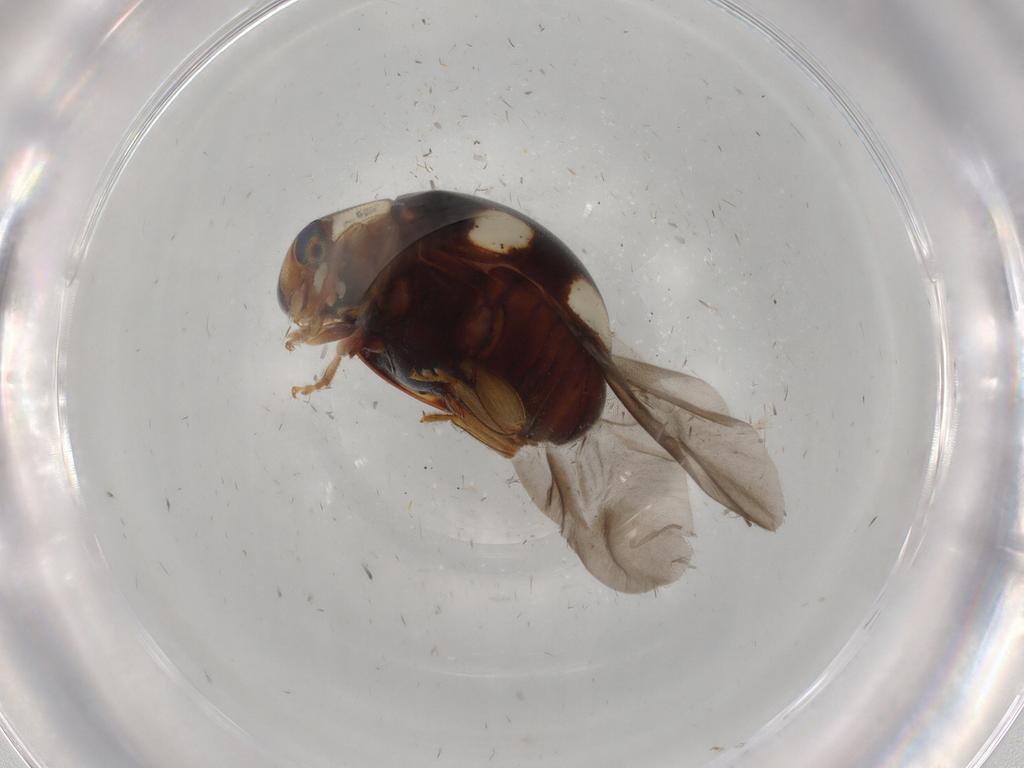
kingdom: Animalia
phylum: Arthropoda
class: Insecta
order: Coleoptera
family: Coccinellidae
